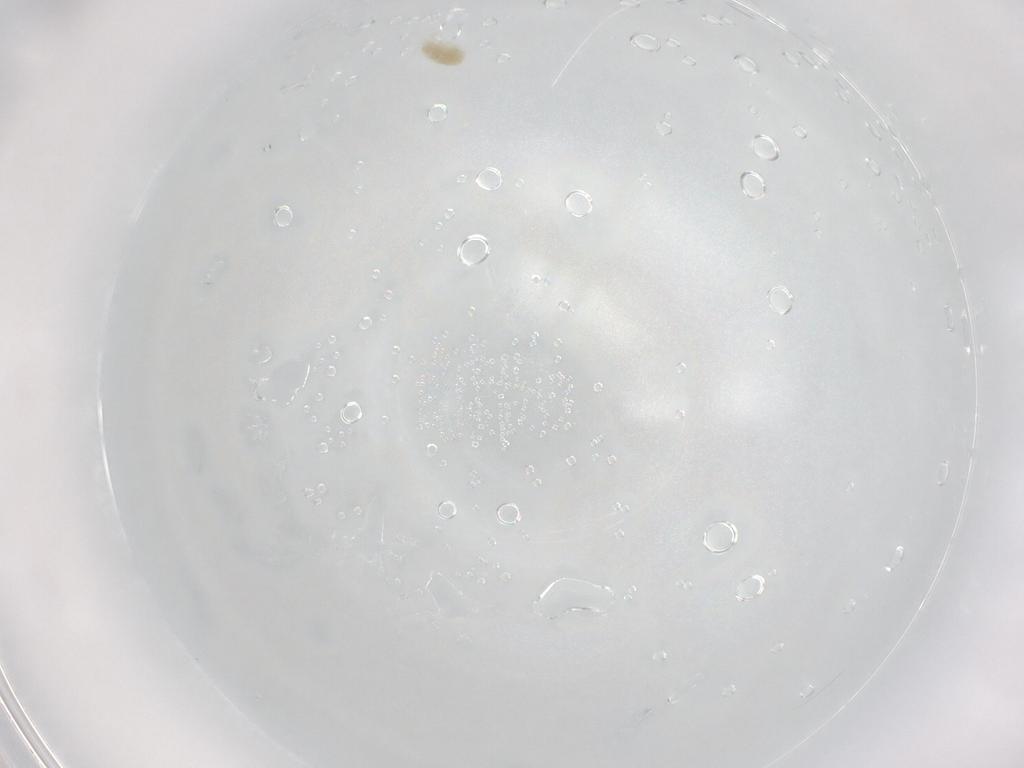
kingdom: Animalia
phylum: Arthropoda
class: Arachnida
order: Trombidiformes
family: Eupodidae
